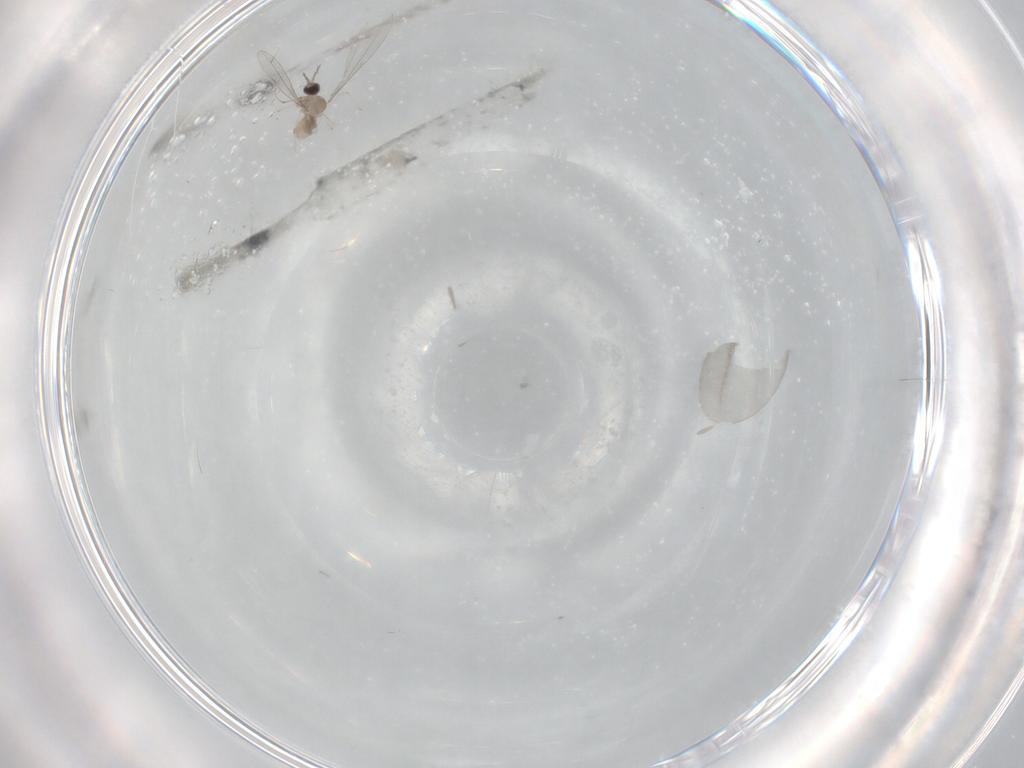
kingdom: Animalia
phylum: Arthropoda
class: Insecta
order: Diptera
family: Cecidomyiidae
